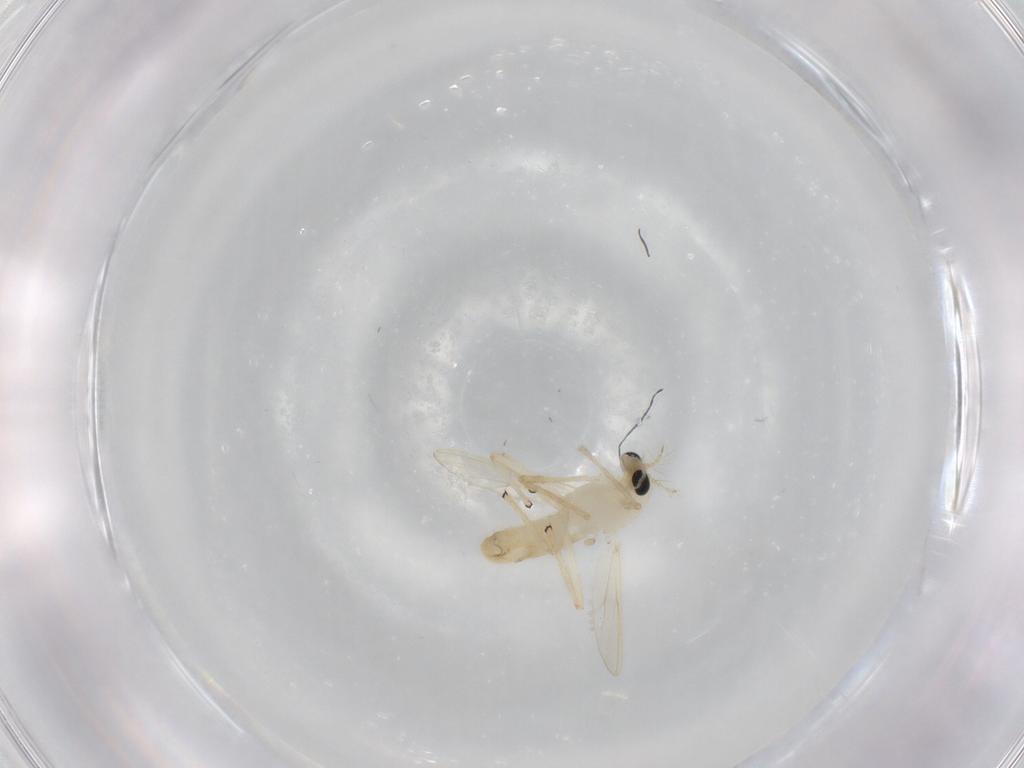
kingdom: Animalia
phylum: Arthropoda
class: Insecta
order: Diptera
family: Chironomidae
